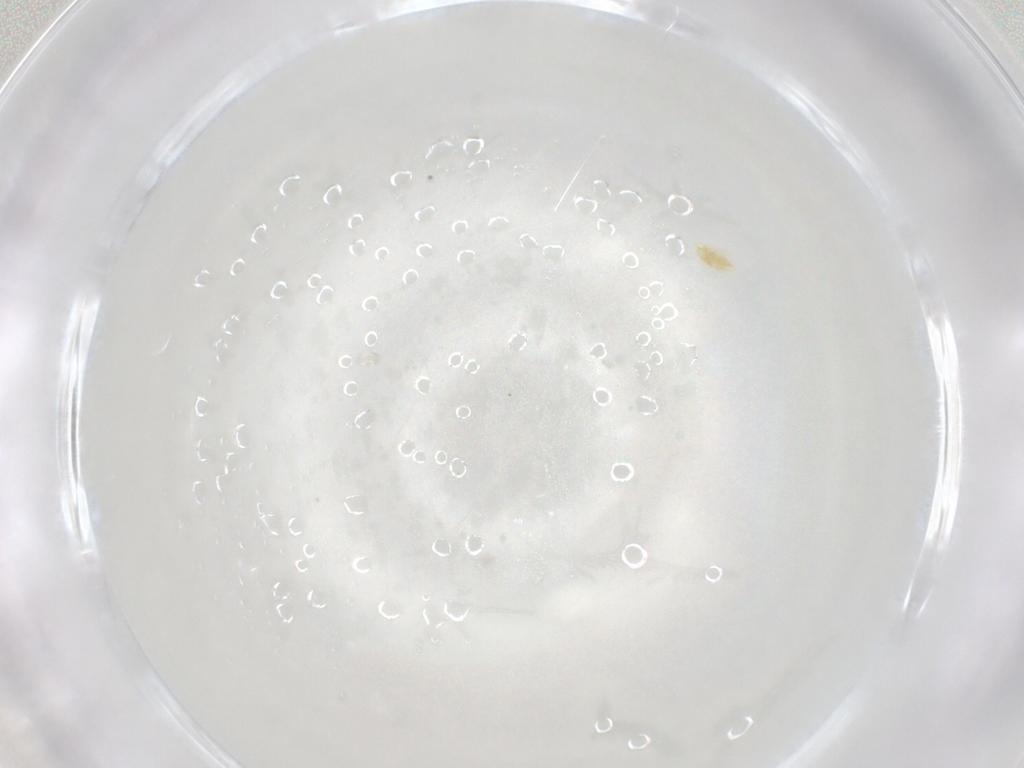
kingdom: Animalia
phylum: Arthropoda
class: Arachnida
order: Trombidiformes
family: Eupodidae
